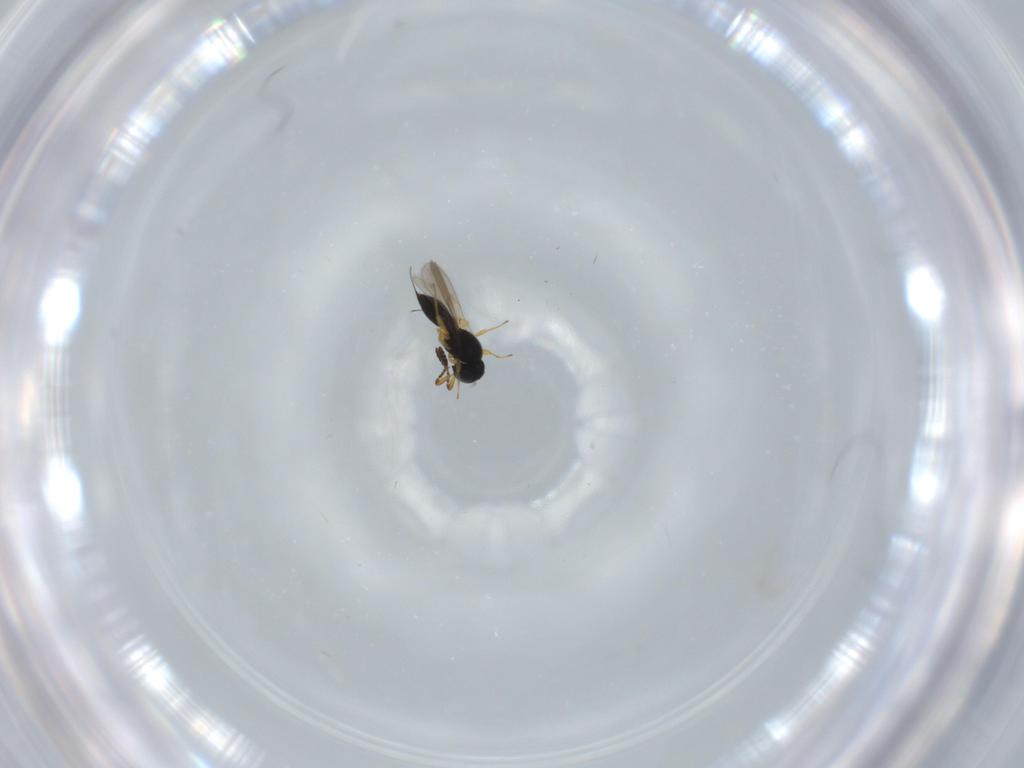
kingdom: Animalia
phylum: Arthropoda
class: Insecta
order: Hymenoptera
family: Scelionidae
